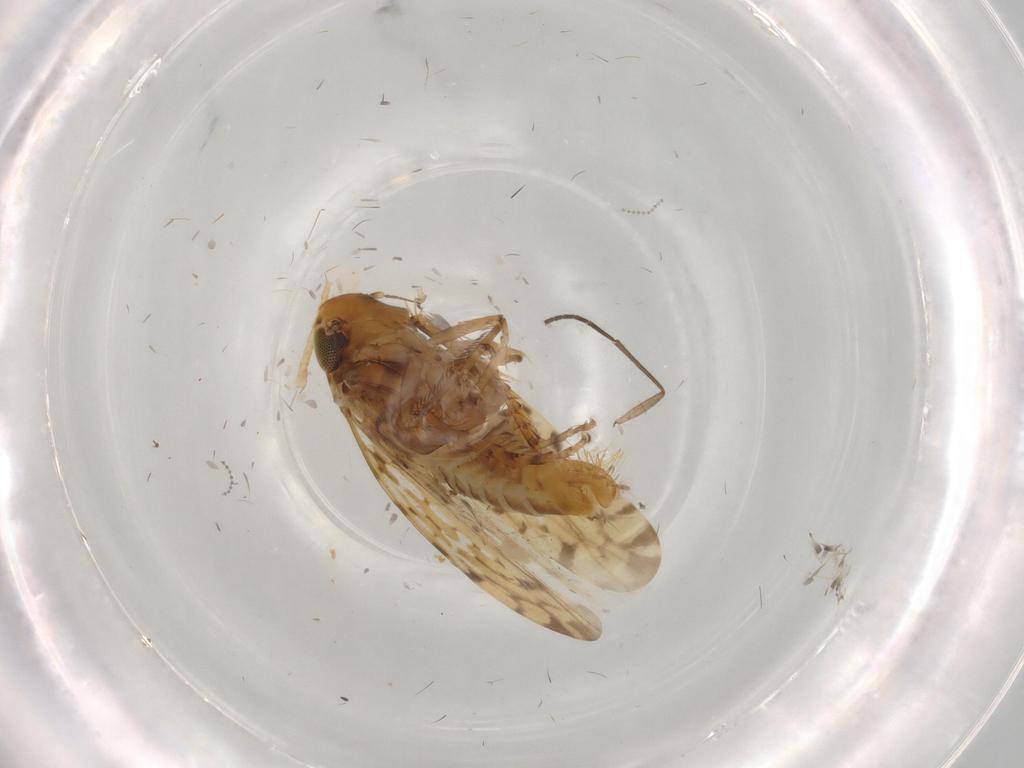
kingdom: Animalia
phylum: Arthropoda
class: Insecta
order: Hemiptera
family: Cicadellidae
